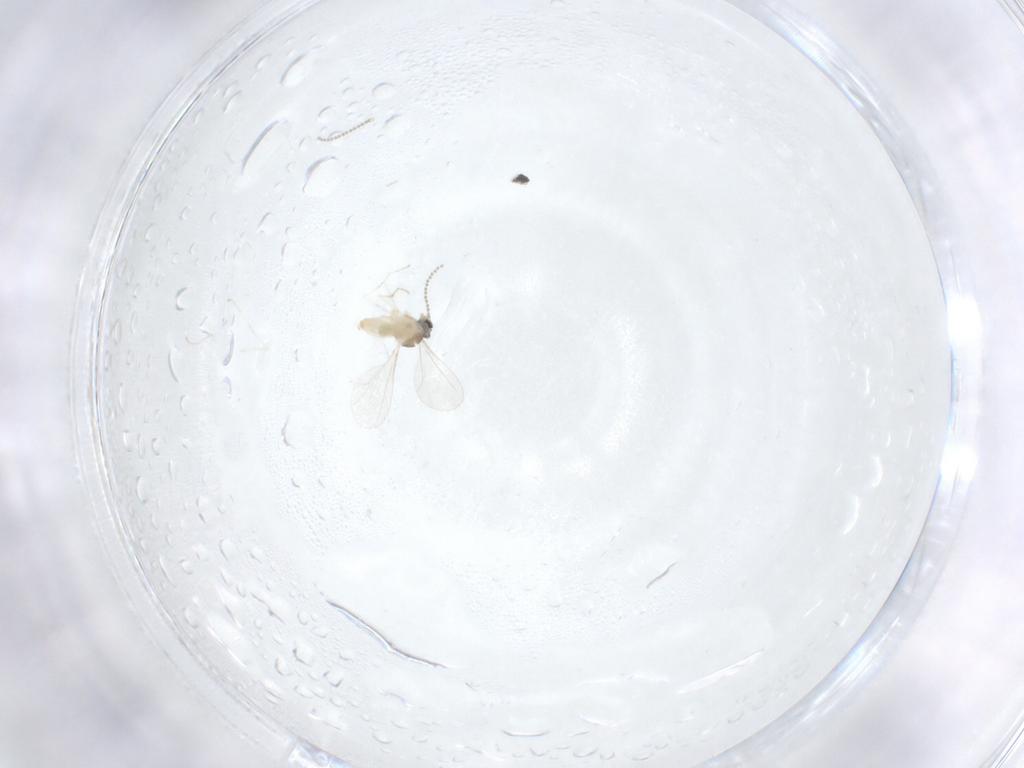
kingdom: Animalia
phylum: Arthropoda
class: Insecta
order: Diptera
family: Cecidomyiidae
